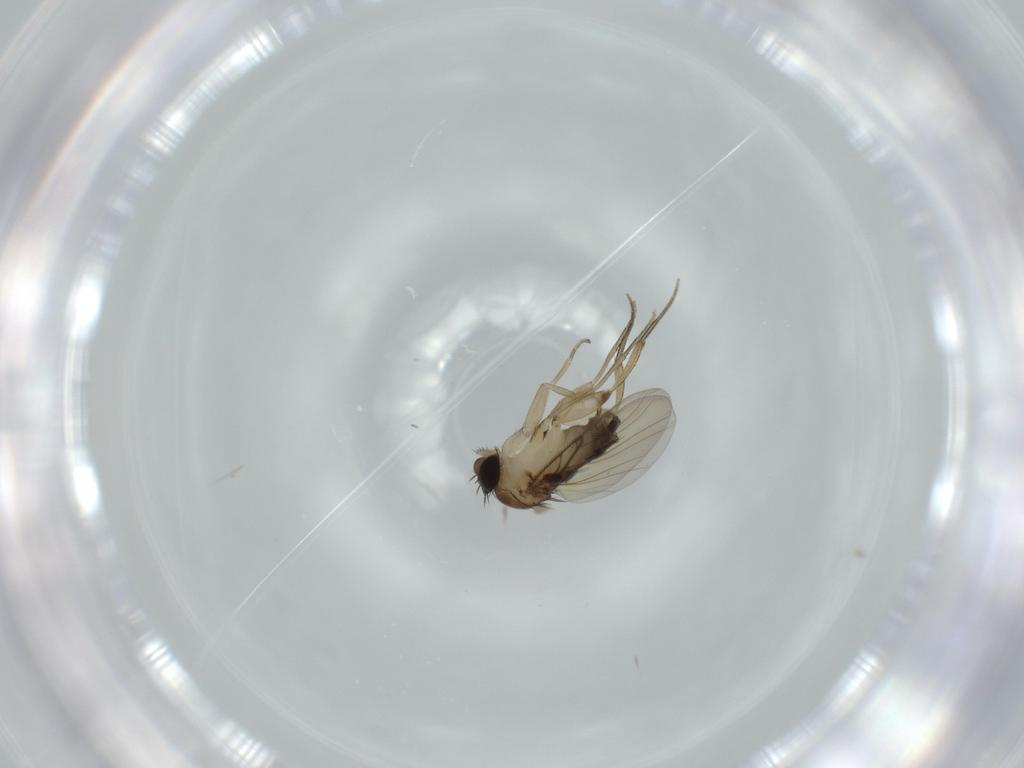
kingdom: Animalia
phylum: Arthropoda
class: Insecta
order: Diptera
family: Phoridae
